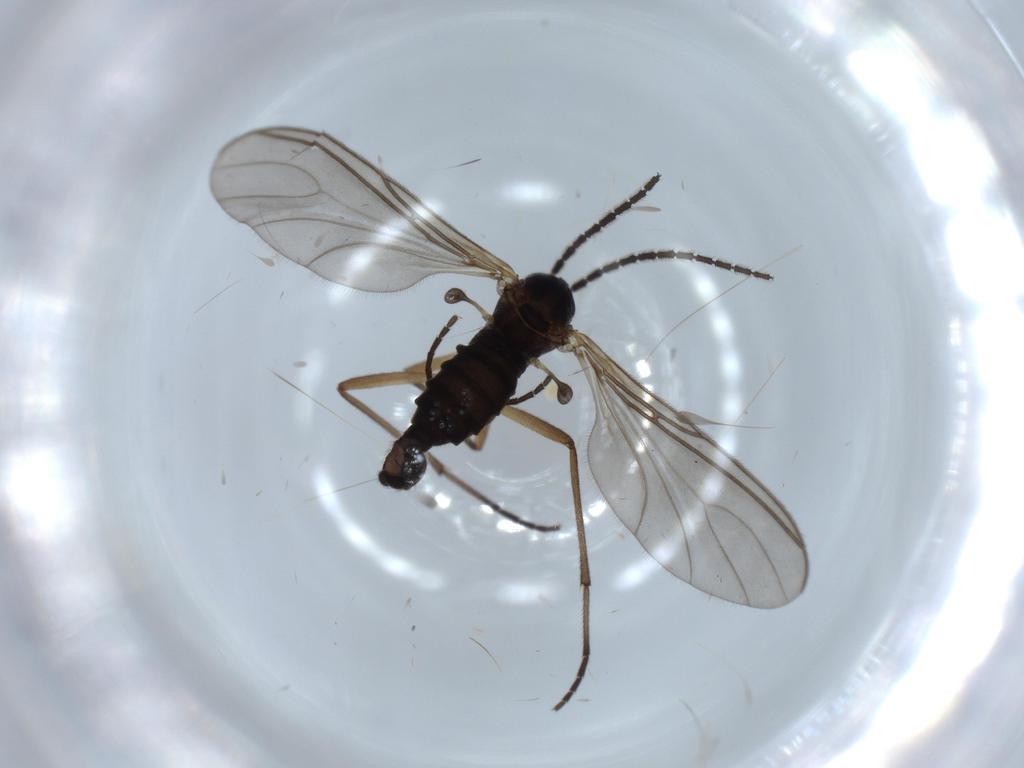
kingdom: Animalia
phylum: Arthropoda
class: Insecta
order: Diptera
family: Sciaridae
